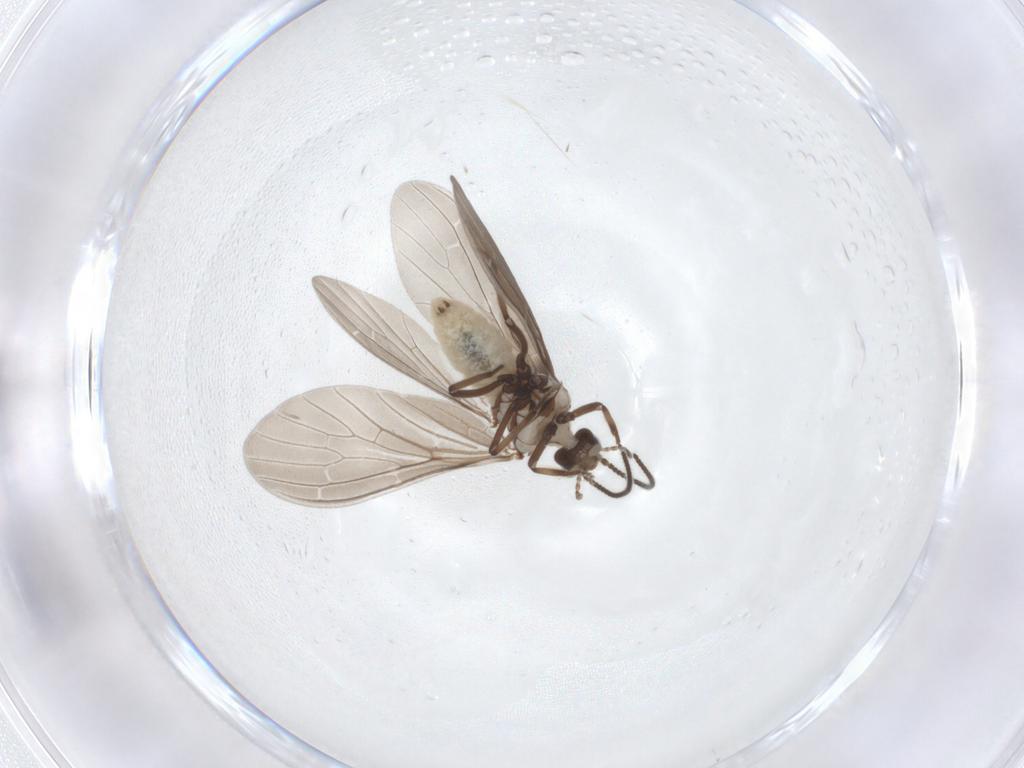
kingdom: Animalia
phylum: Arthropoda
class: Insecta
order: Neuroptera
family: Coniopterygidae
